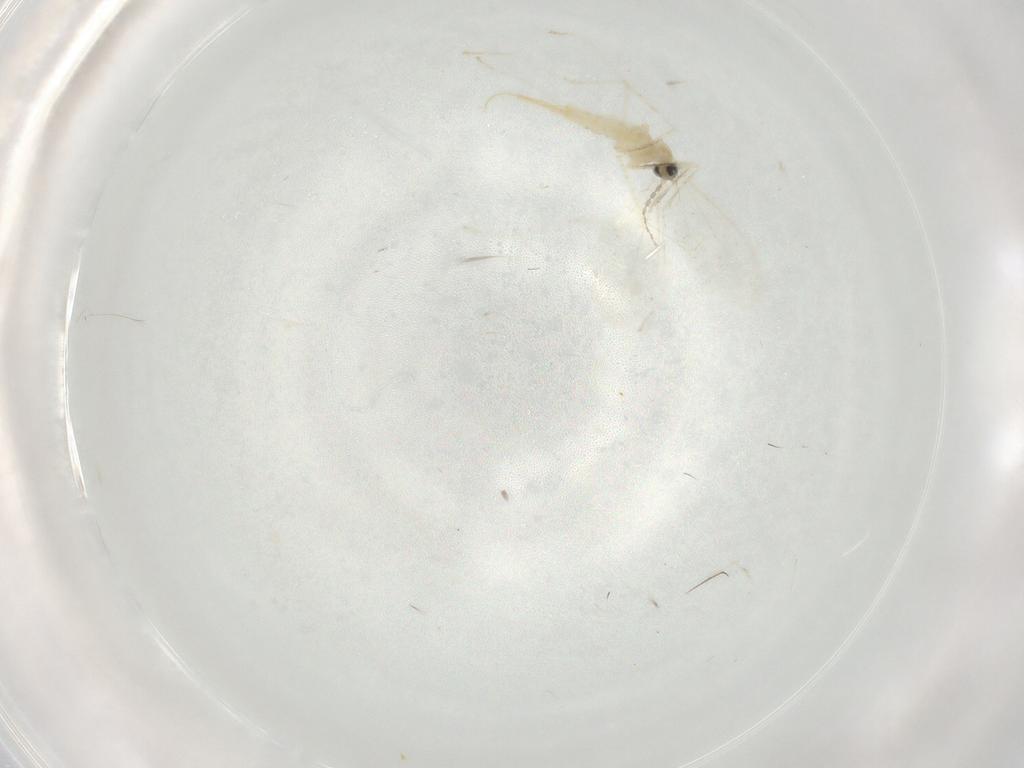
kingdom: Animalia
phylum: Arthropoda
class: Insecta
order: Diptera
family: Cecidomyiidae
